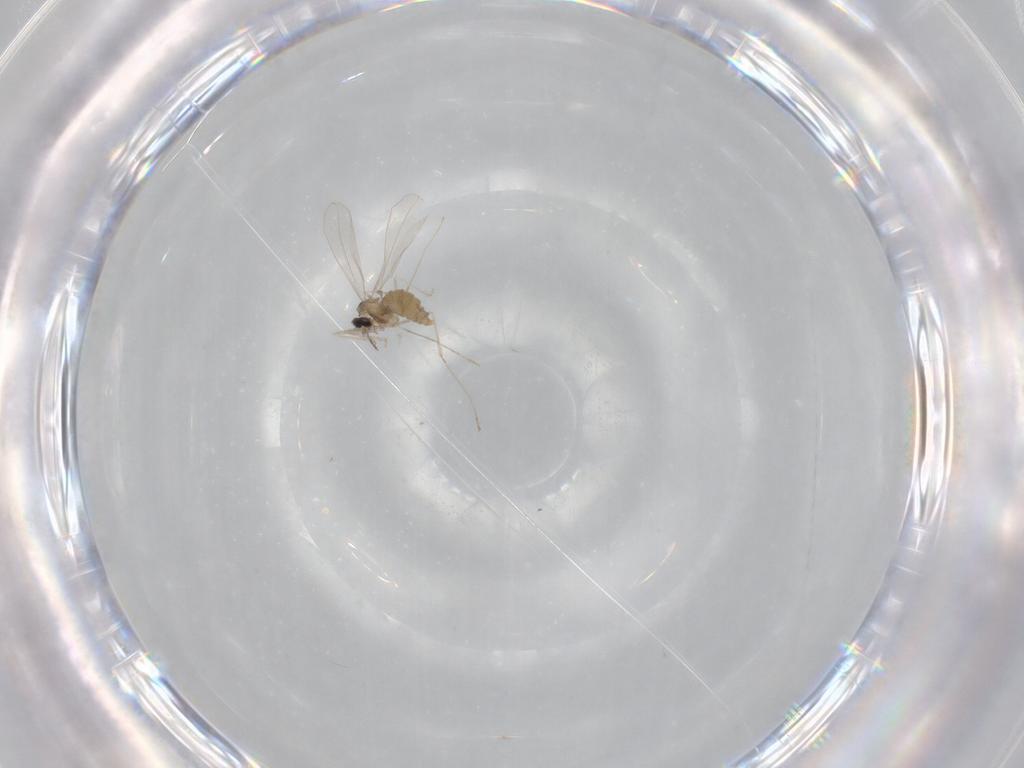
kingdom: Animalia
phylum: Arthropoda
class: Insecta
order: Diptera
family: Cecidomyiidae
